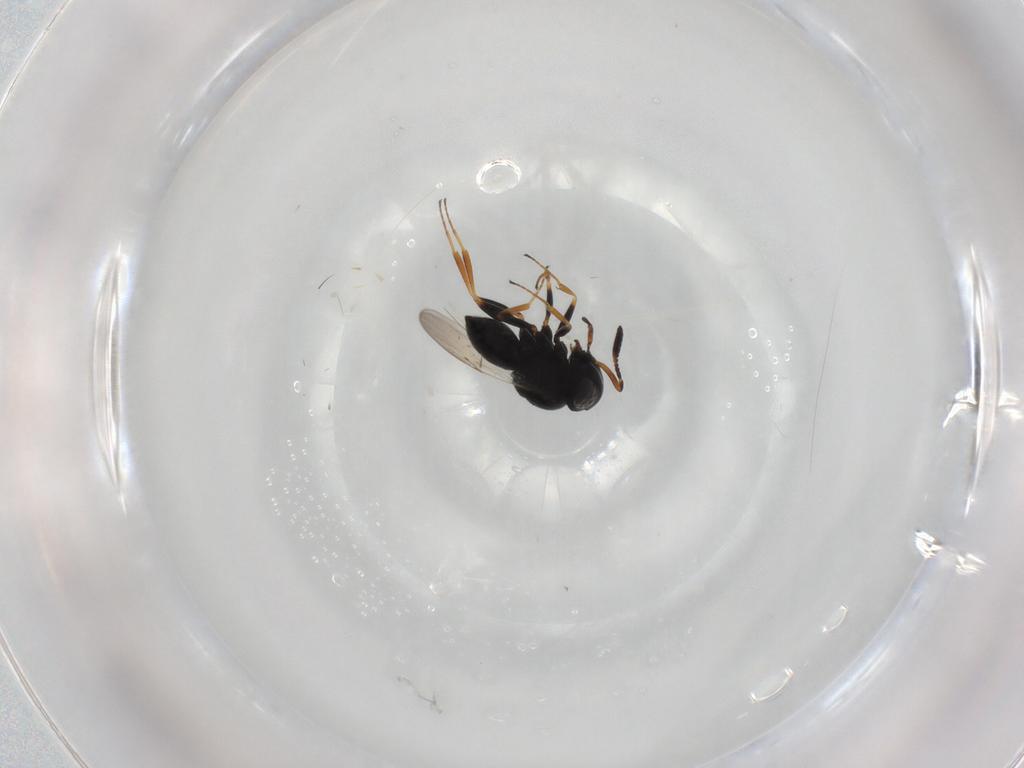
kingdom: Animalia
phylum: Arthropoda
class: Insecta
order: Coleoptera
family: Curculionidae
